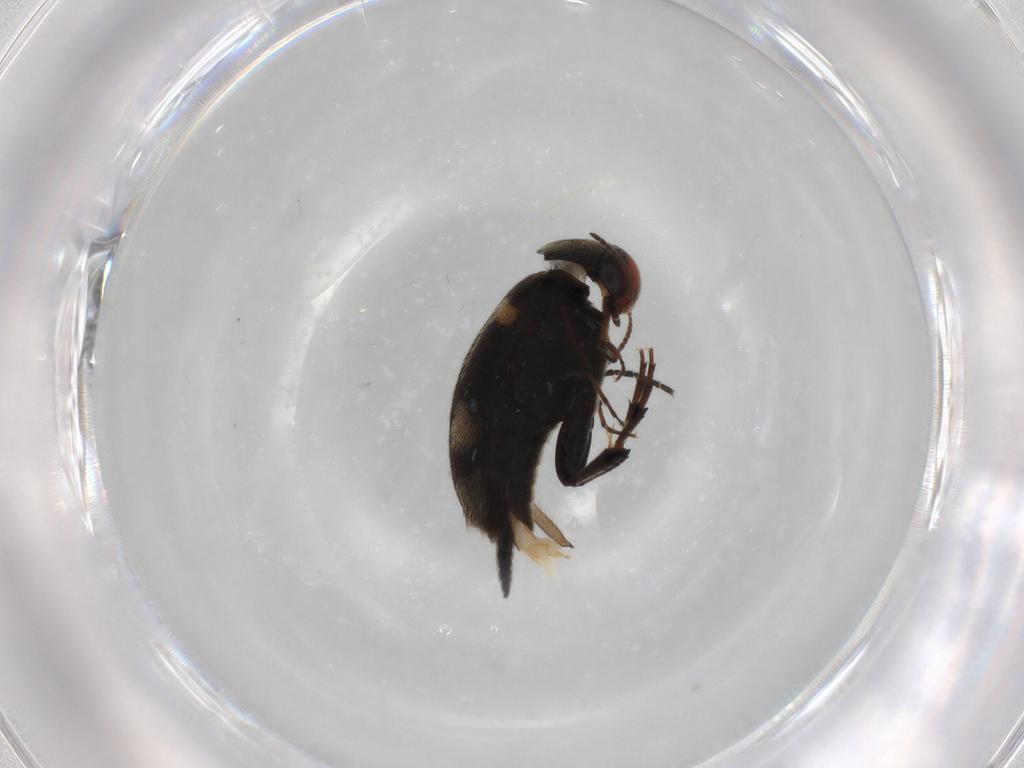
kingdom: Animalia
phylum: Arthropoda
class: Insecta
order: Coleoptera
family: Mordellidae
